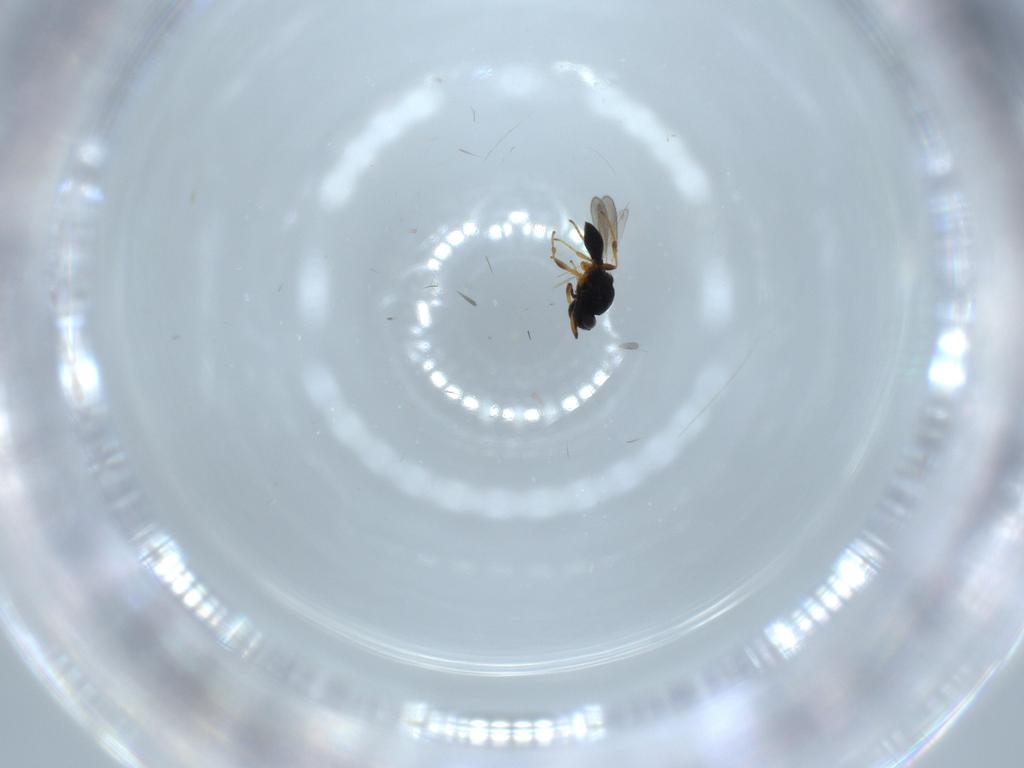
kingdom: Animalia
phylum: Arthropoda
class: Insecta
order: Hymenoptera
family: Platygastridae
